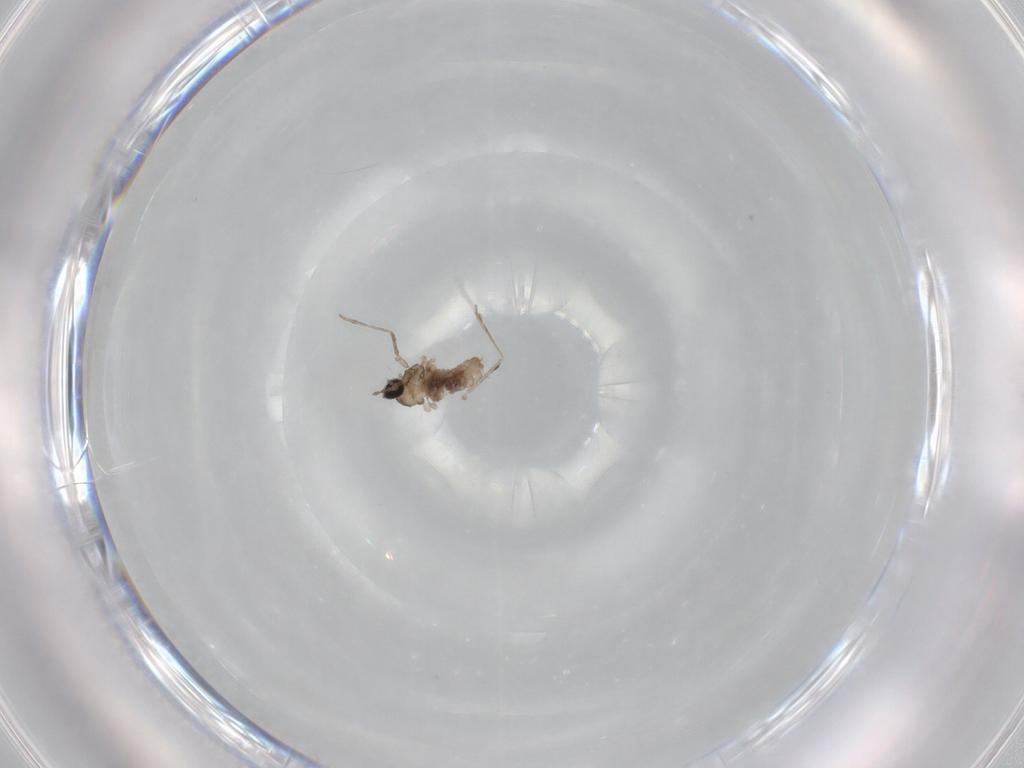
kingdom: Animalia
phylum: Arthropoda
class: Insecta
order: Diptera
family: Cecidomyiidae
